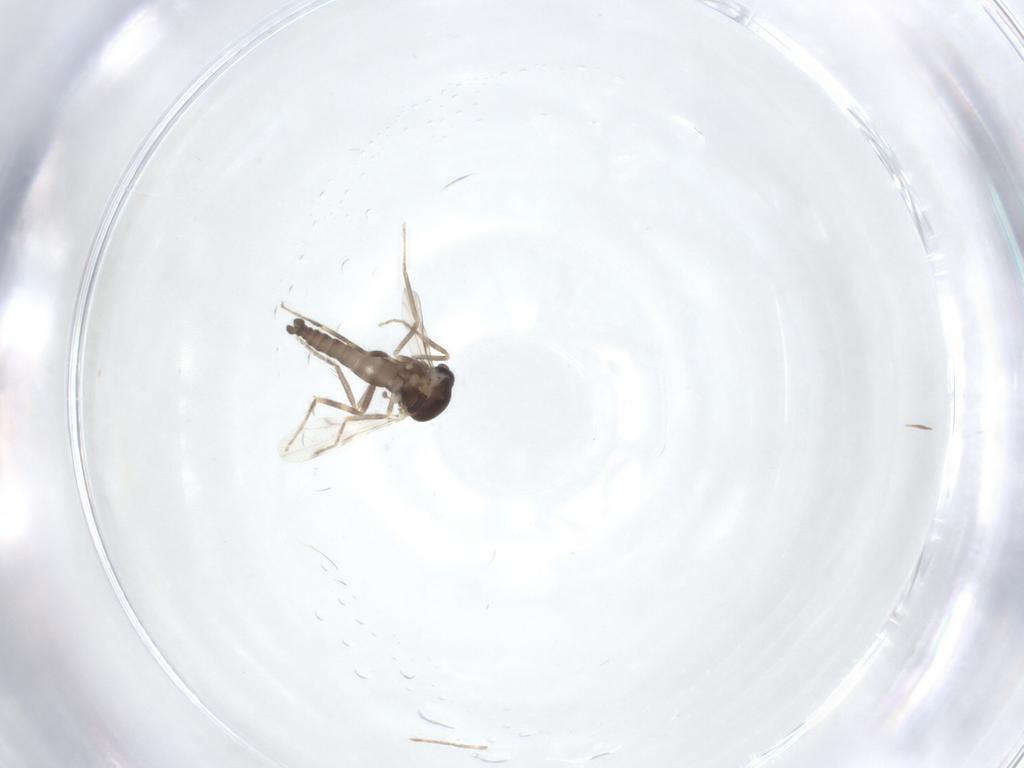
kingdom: Animalia
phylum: Arthropoda
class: Insecta
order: Diptera
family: Ceratopogonidae
